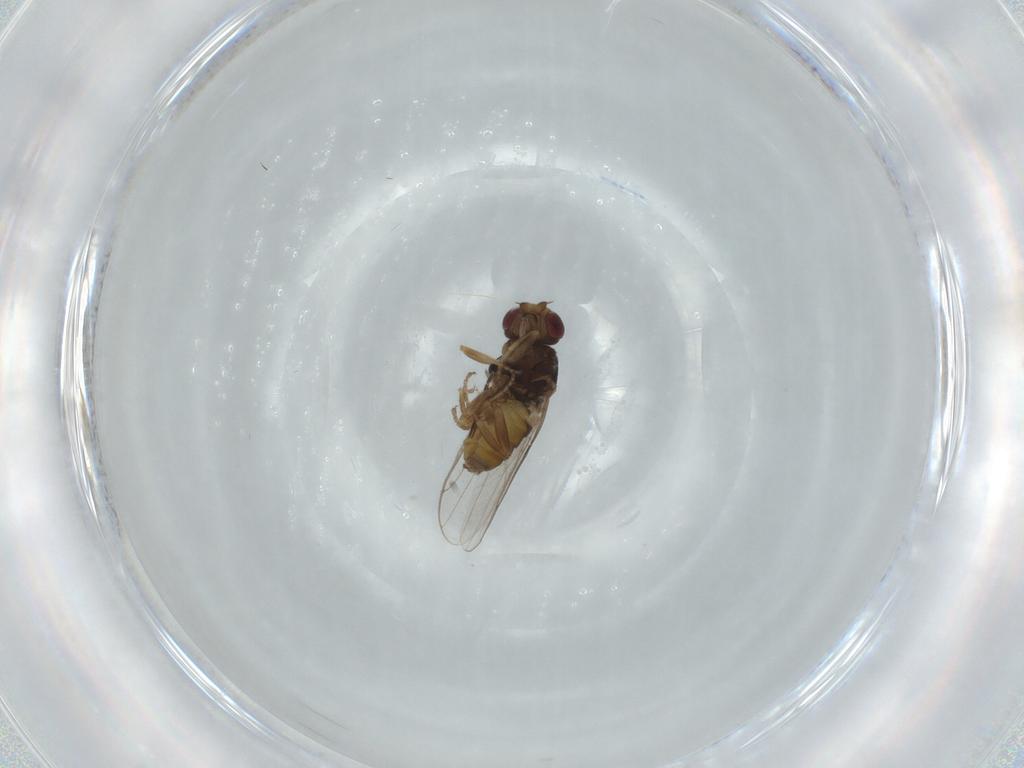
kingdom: Animalia
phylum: Arthropoda
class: Insecta
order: Diptera
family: Chloropidae
